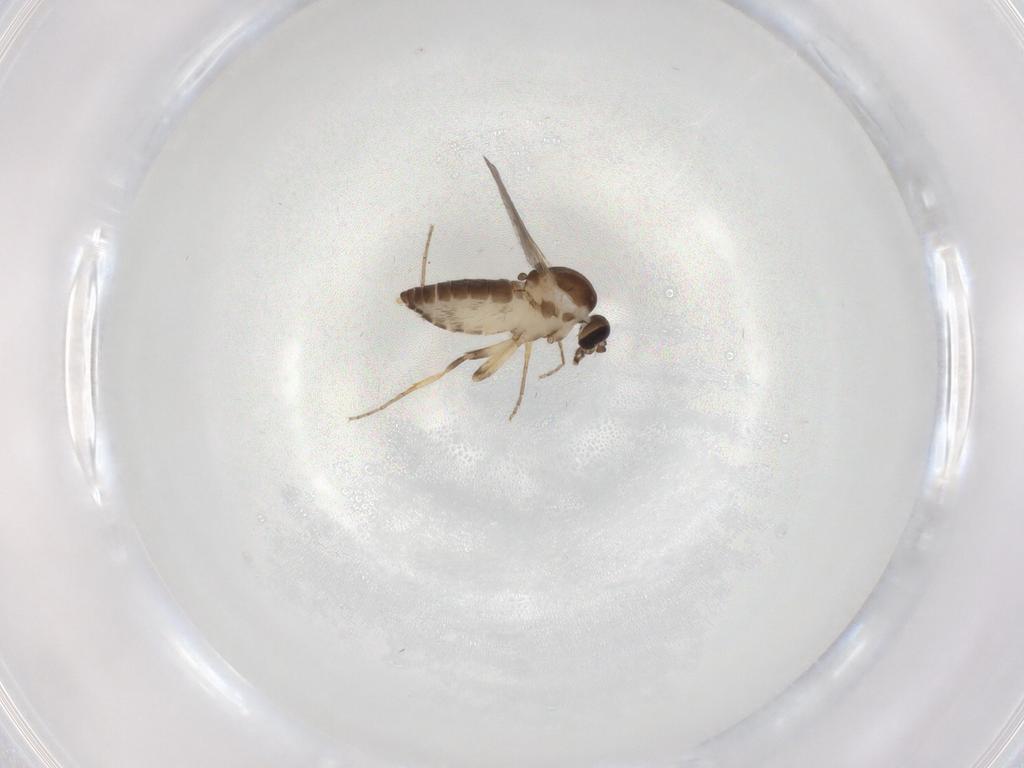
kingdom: Animalia
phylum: Arthropoda
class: Insecta
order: Diptera
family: Ceratopogonidae
